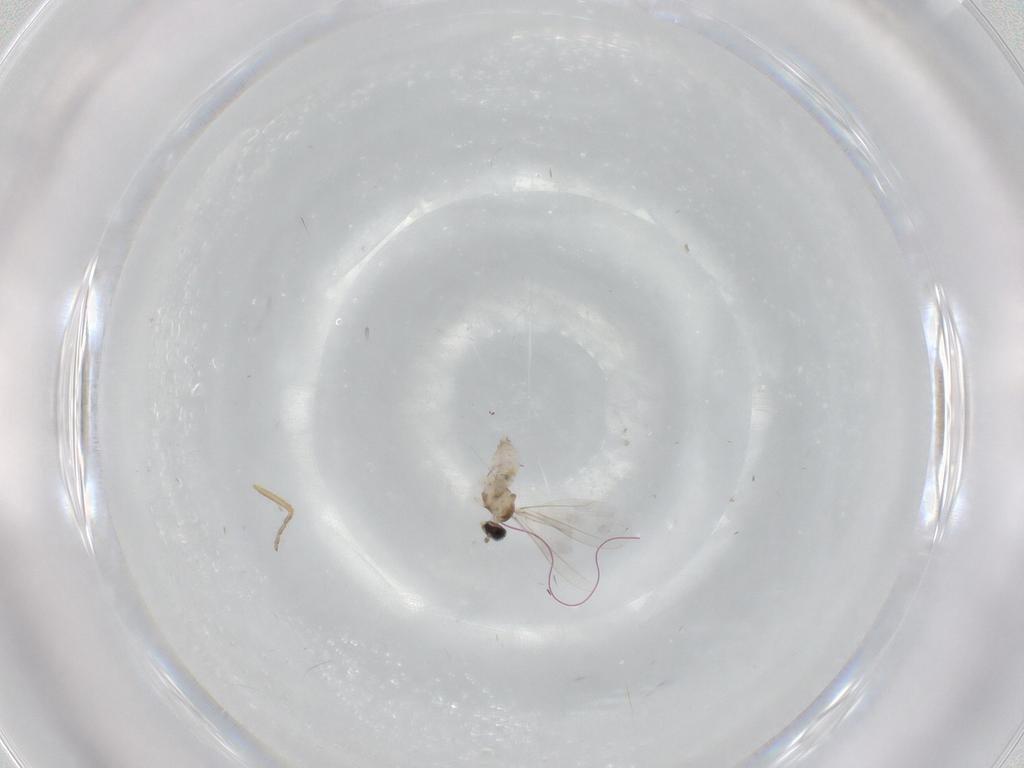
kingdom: Animalia
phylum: Arthropoda
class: Insecta
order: Diptera
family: Cecidomyiidae
